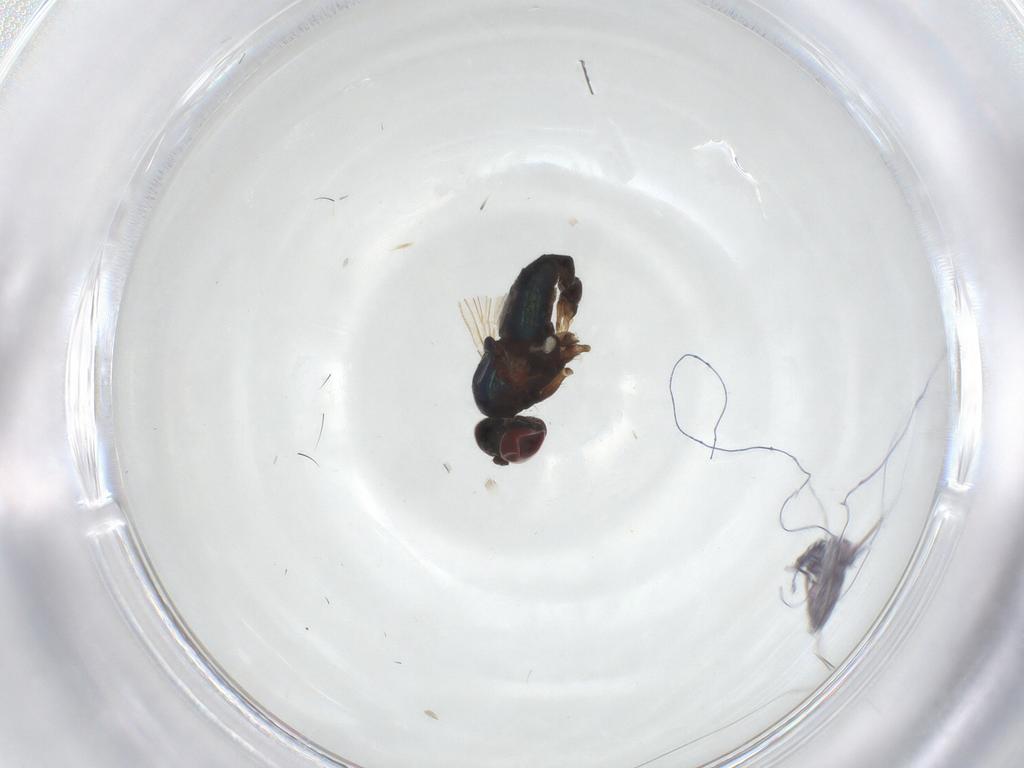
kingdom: Animalia
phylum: Arthropoda
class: Insecta
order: Diptera
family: Dolichopodidae
